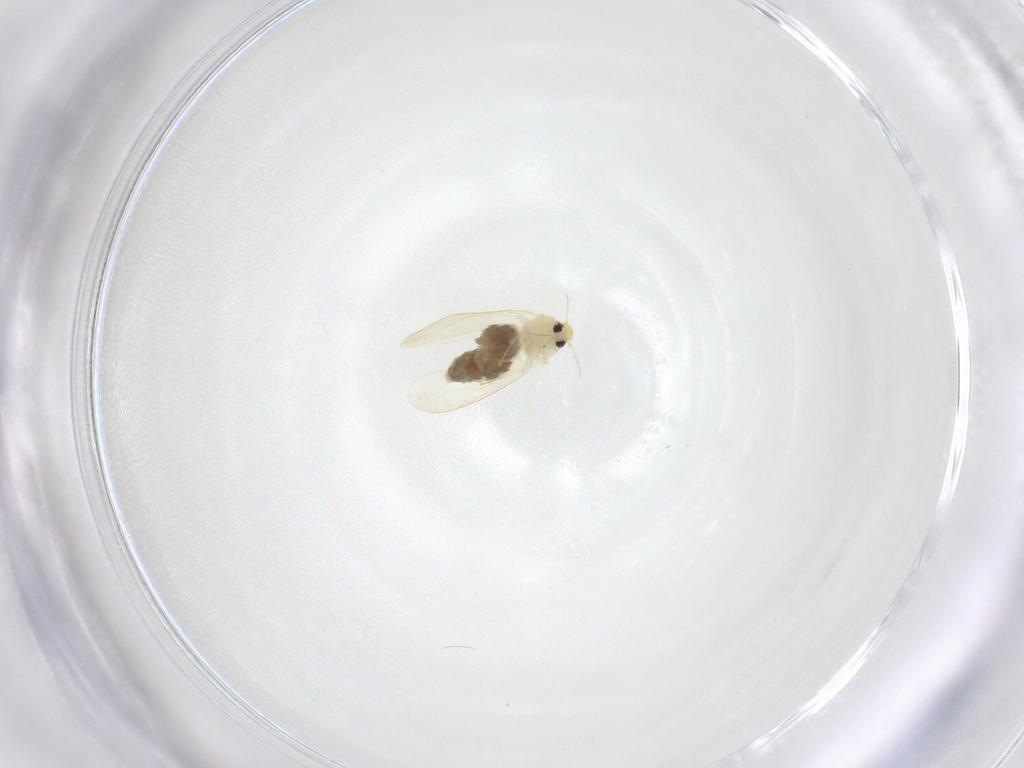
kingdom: Animalia
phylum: Arthropoda
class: Insecta
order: Hemiptera
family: Aleyrodidae
